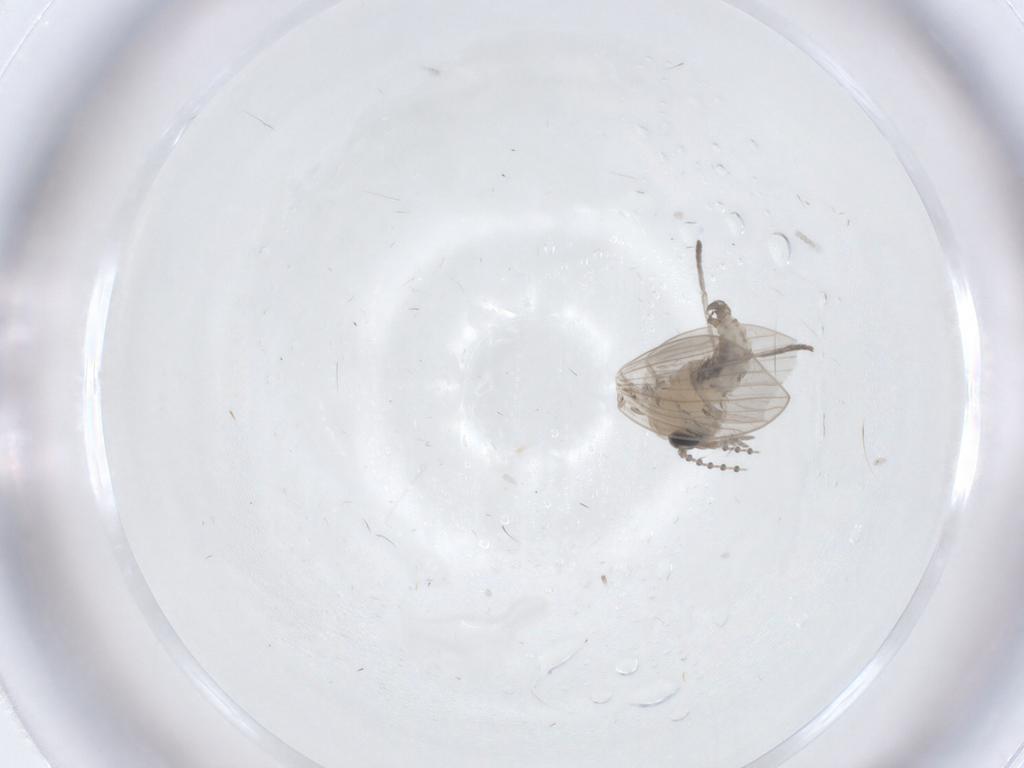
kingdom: Animalia
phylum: Arthropoda
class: Insecta
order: Diptera
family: Psychodidae
